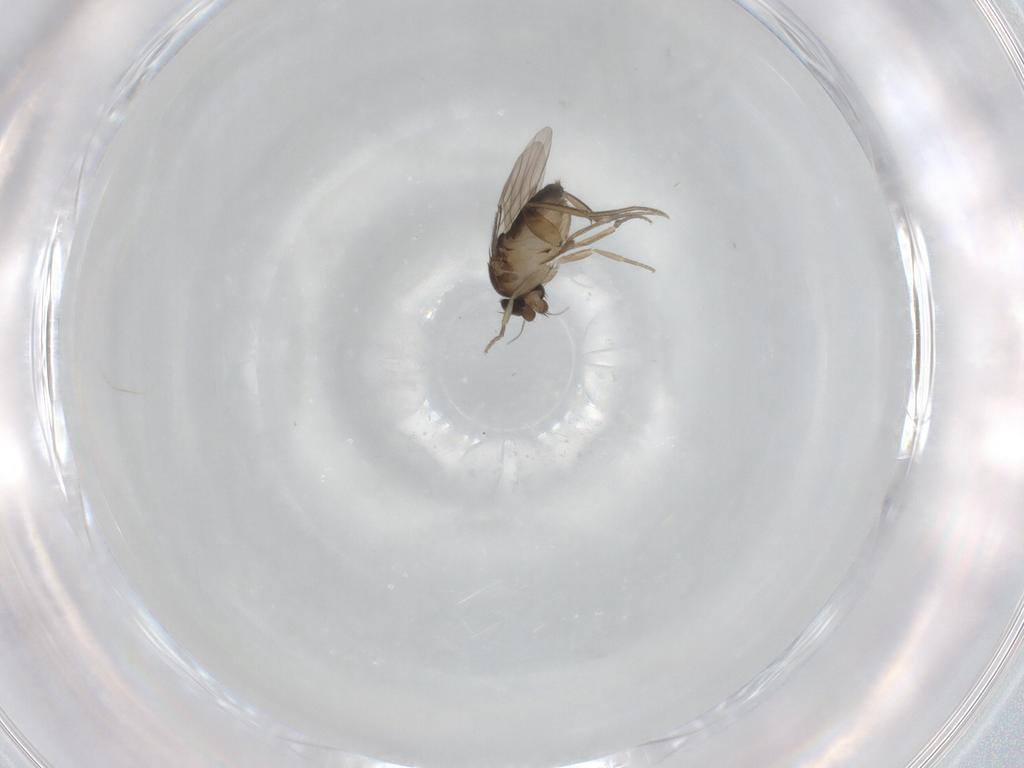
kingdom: Animalia
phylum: Arthropoda
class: Insecta
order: Diptera
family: Phoridae
